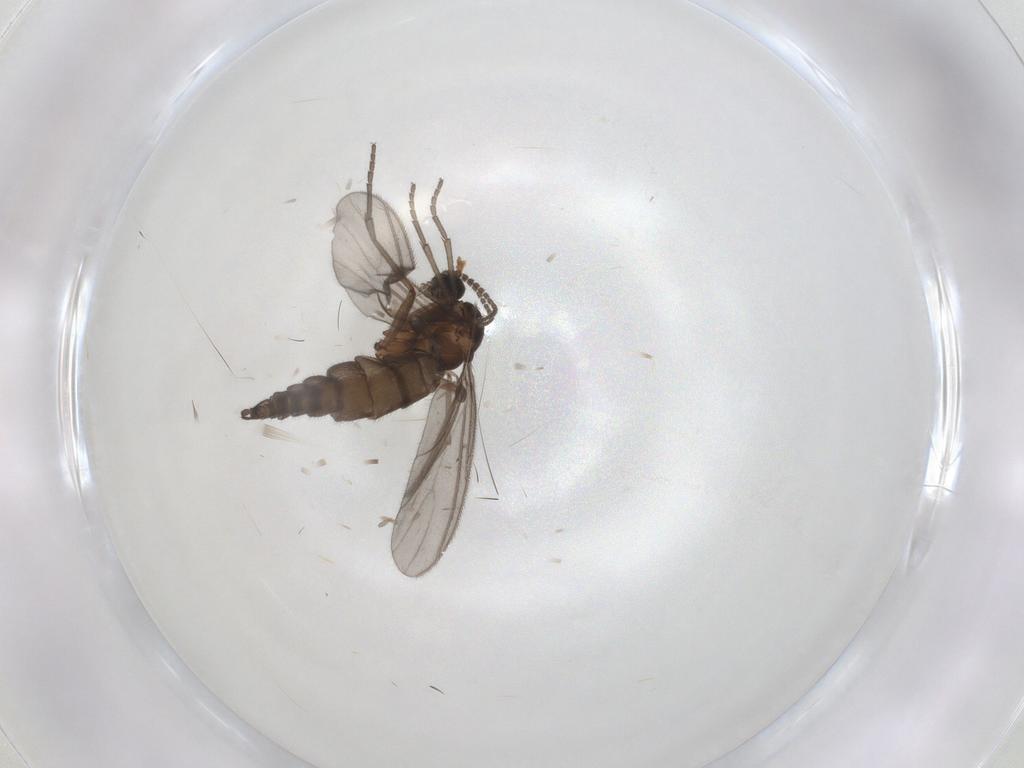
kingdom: Animalia
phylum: Arthropoda
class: Insecta
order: Diptera
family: Sciaridae
